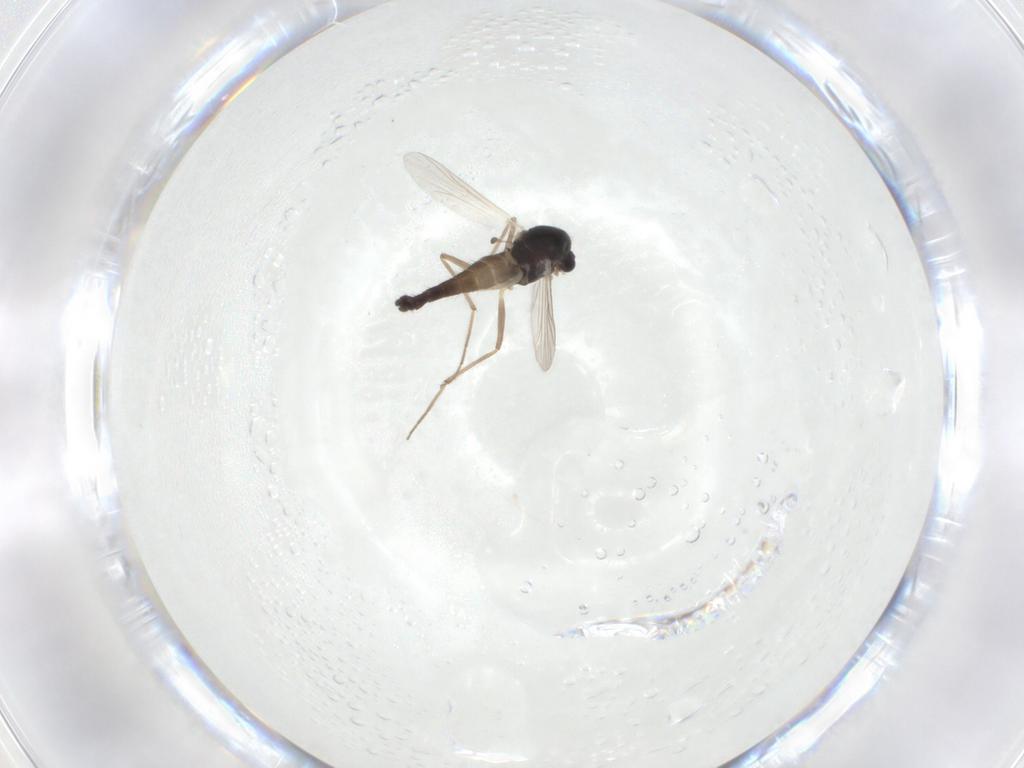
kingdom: Animalia
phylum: Arthropoda
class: Insecta
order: Diptera
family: Chironomidae
